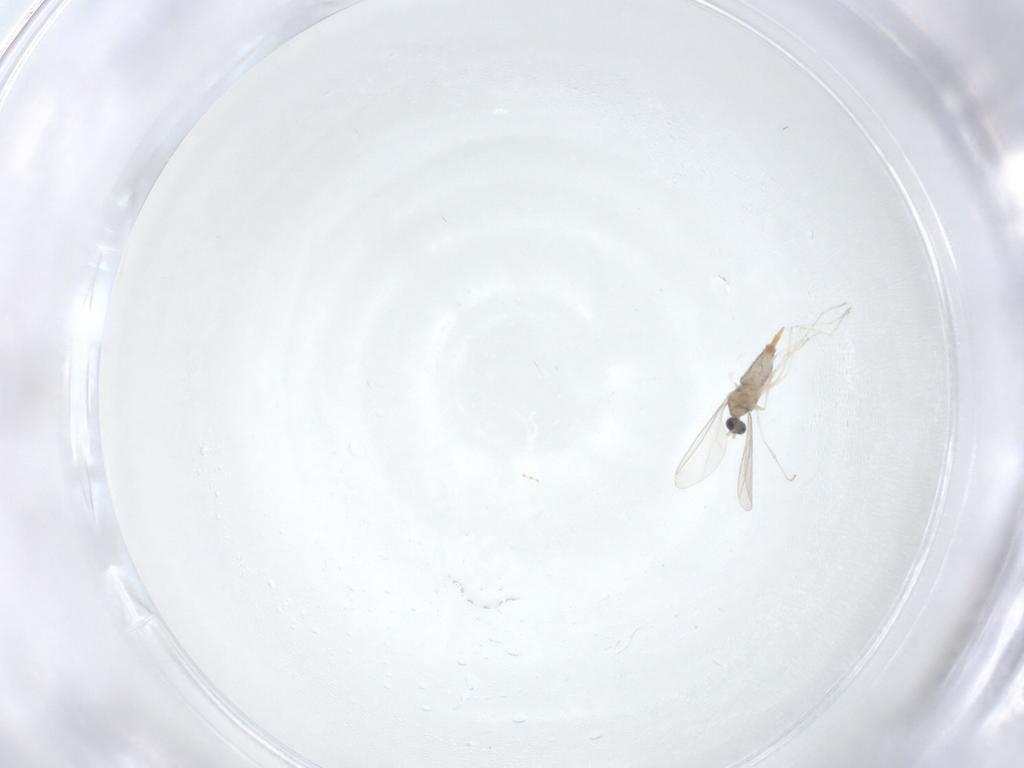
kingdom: Animalia
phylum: Arthropoda
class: Insecta
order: Diptera
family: Cecidomyiidae
